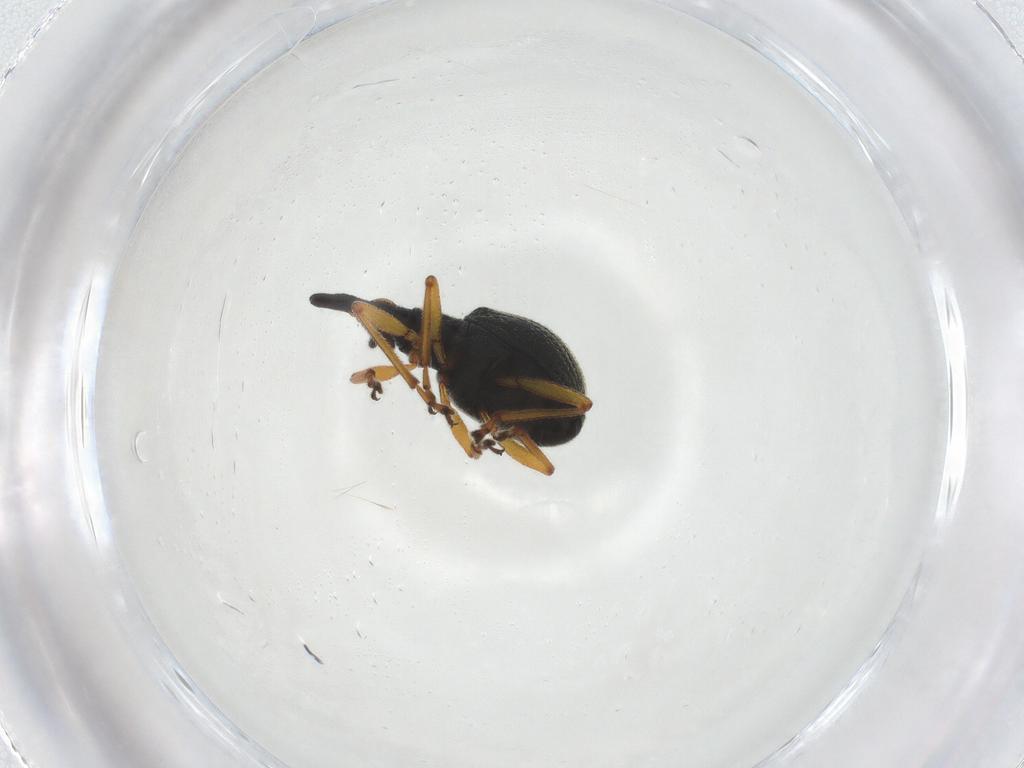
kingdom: Animalia
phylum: Arthropoda
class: Insecta
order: Coleoptera
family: Brentidae
